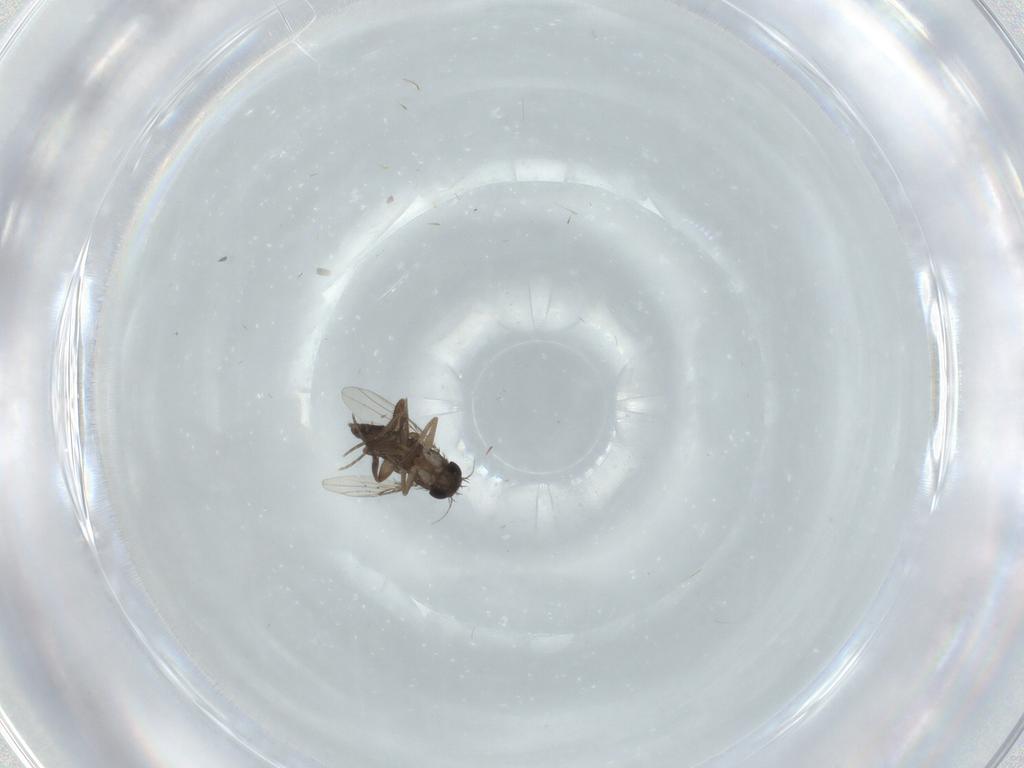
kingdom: Animalia
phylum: Arthropoda
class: Insecta
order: Diptera
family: Phoridae
